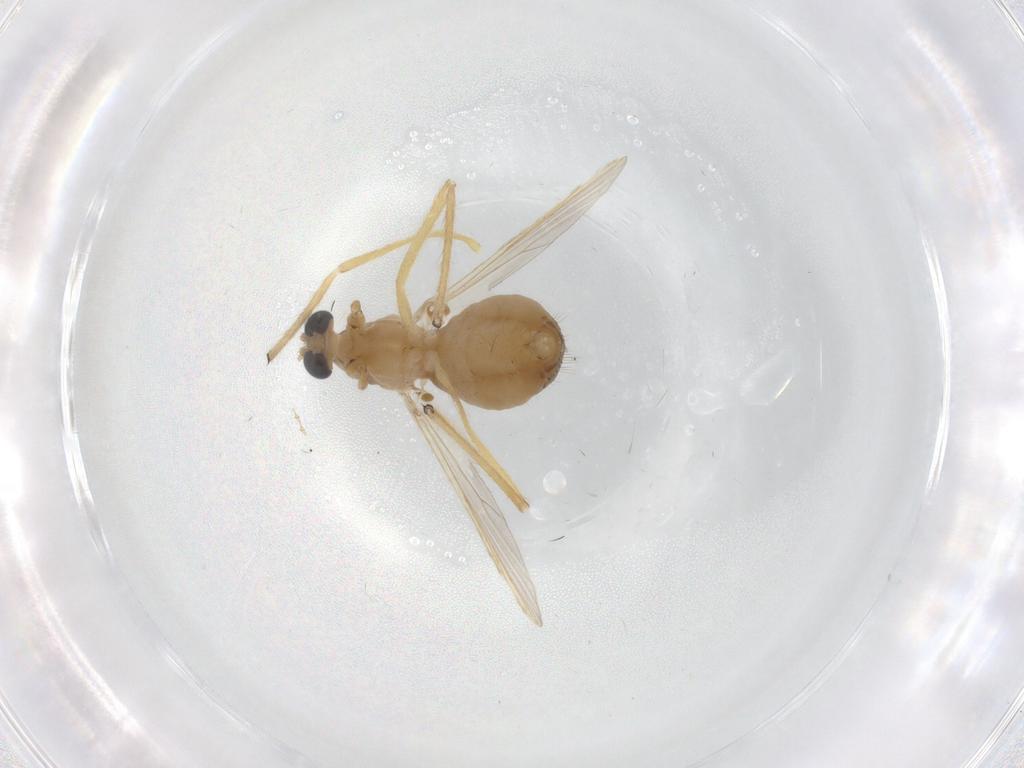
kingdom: Animalia
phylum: Arthropoda
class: Insecta
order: Diptera
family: Chironomidae
